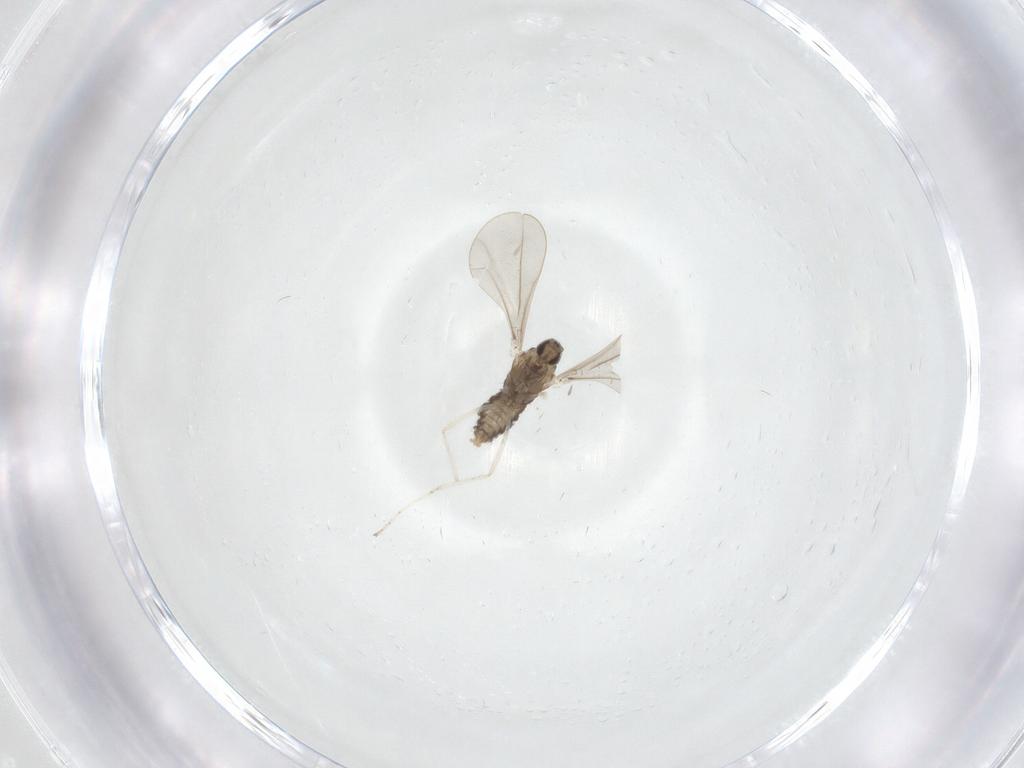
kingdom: Animalia
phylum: Arthropoda
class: Insecta
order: Diptera
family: Cecidomyiidae
